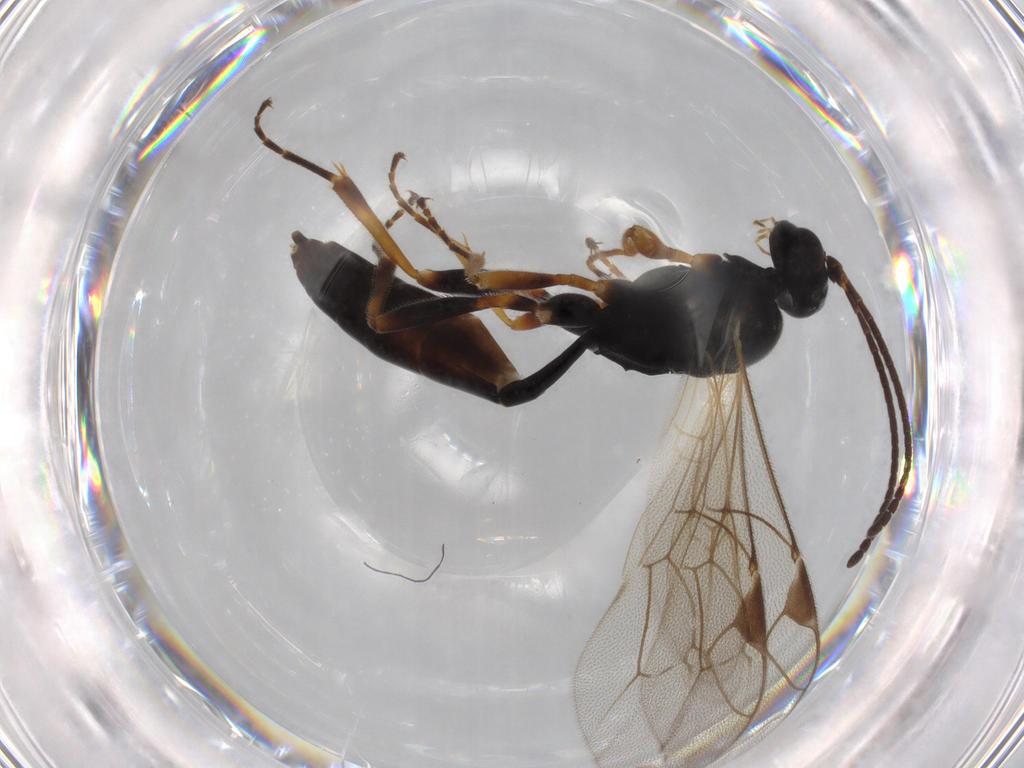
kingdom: Animalia
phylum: Arthropoda
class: Insecta
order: Hymenoptera
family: Ichneumonidae
